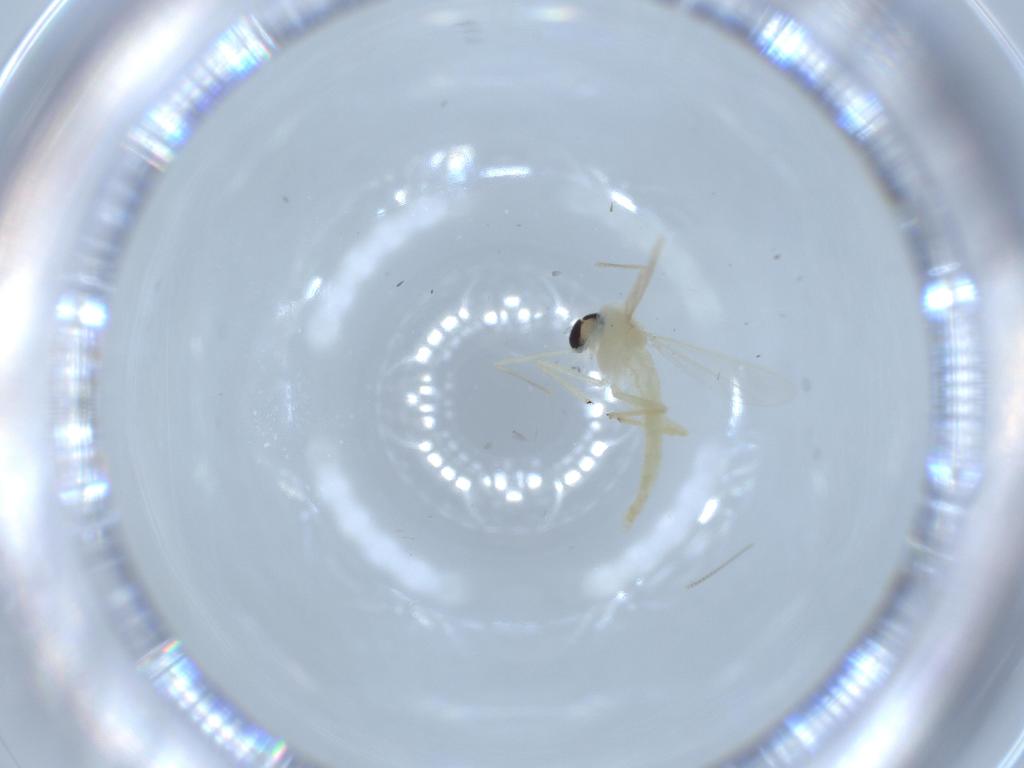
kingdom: Animalia
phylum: Arthropoda
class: Insecta
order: Diptera
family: Chironomidae
